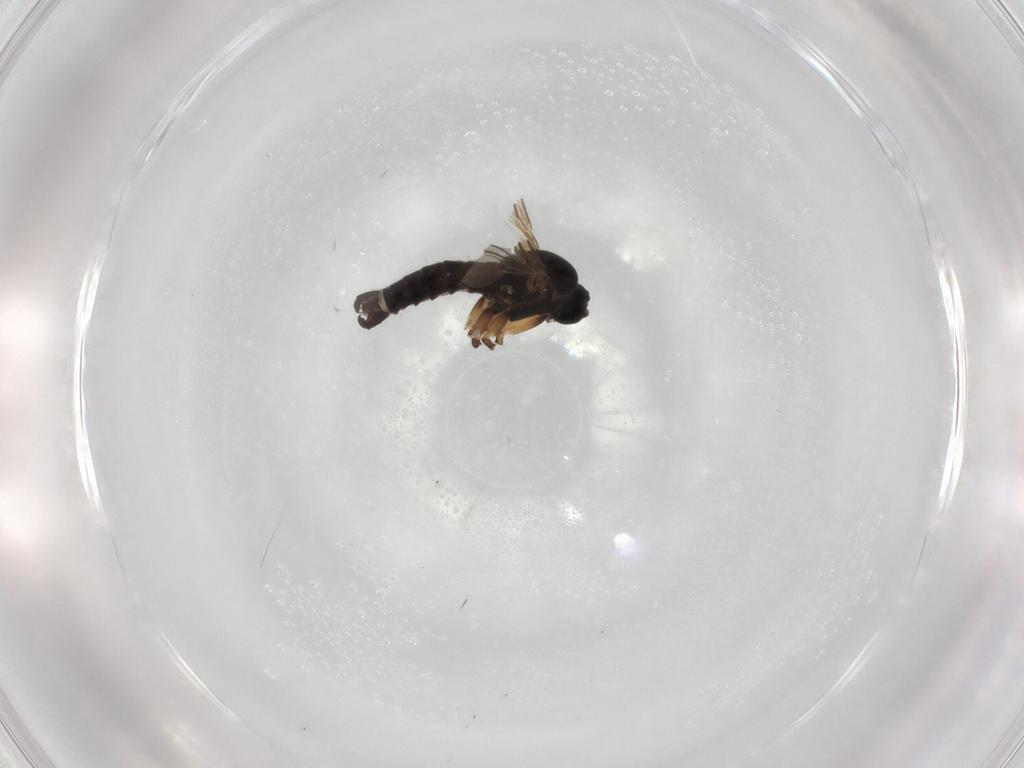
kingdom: Animalia
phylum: Arthropoda
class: Insecta
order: Diptera
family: Sciaridae
